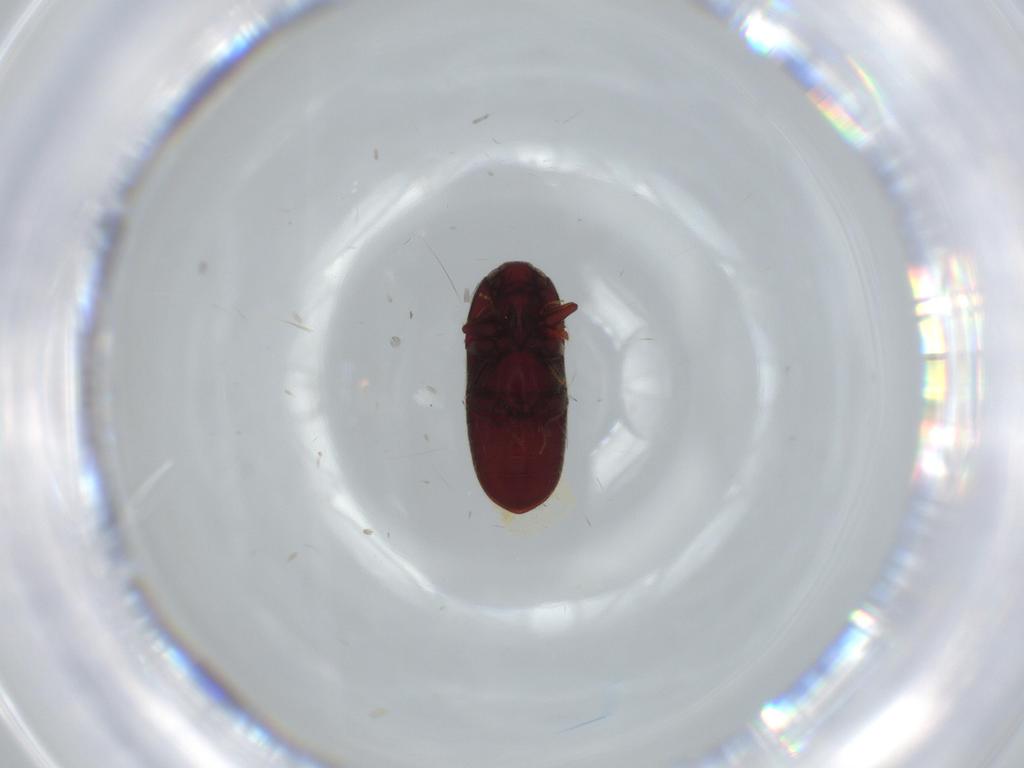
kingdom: Animalia
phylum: Arthropoda
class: Insecta
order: Coleoptera
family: Throscidae
